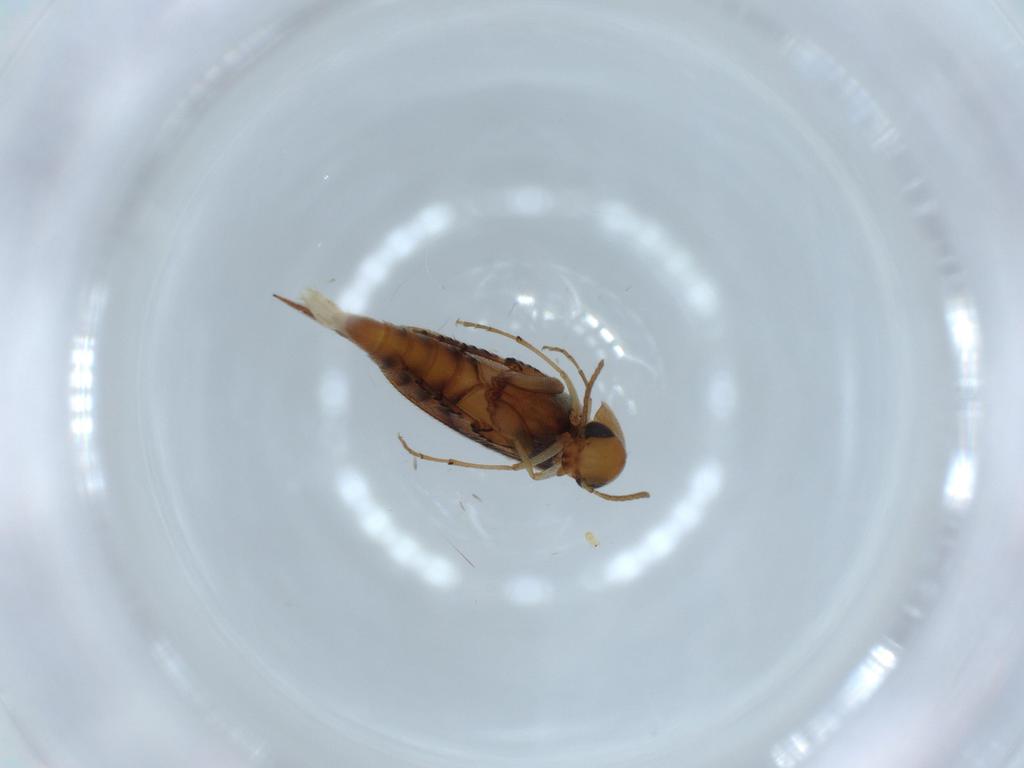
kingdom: Animalia
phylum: Arthropoda
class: Insecta
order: Coleoptera
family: Mordellidae
